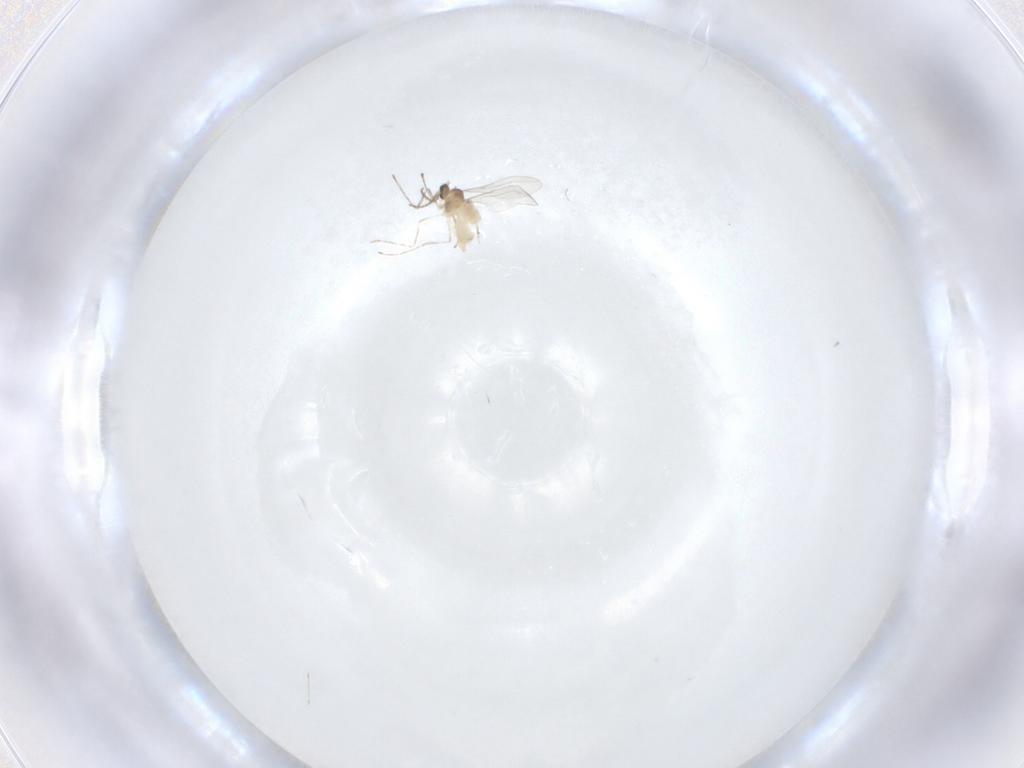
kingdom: Animalia
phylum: Arthropoda
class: Insecta
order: Diptera
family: Cecidomyiidae
